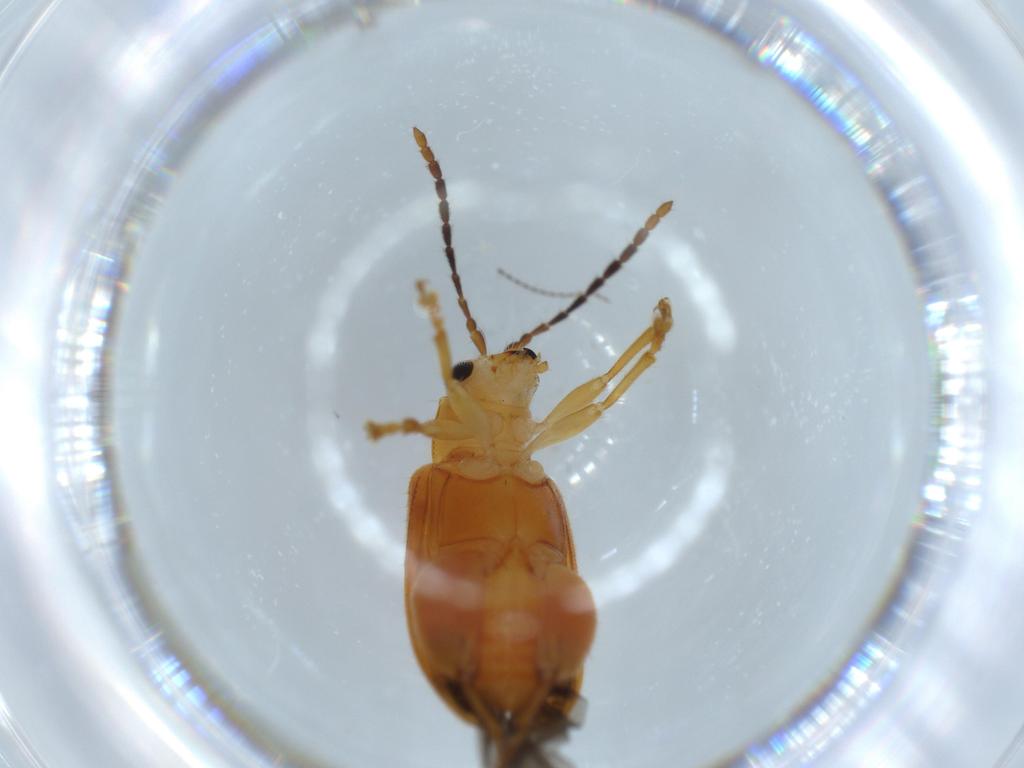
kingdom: Animalia
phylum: Arthropoda
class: Insecta
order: Coleoptera
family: Chrysomelidae
